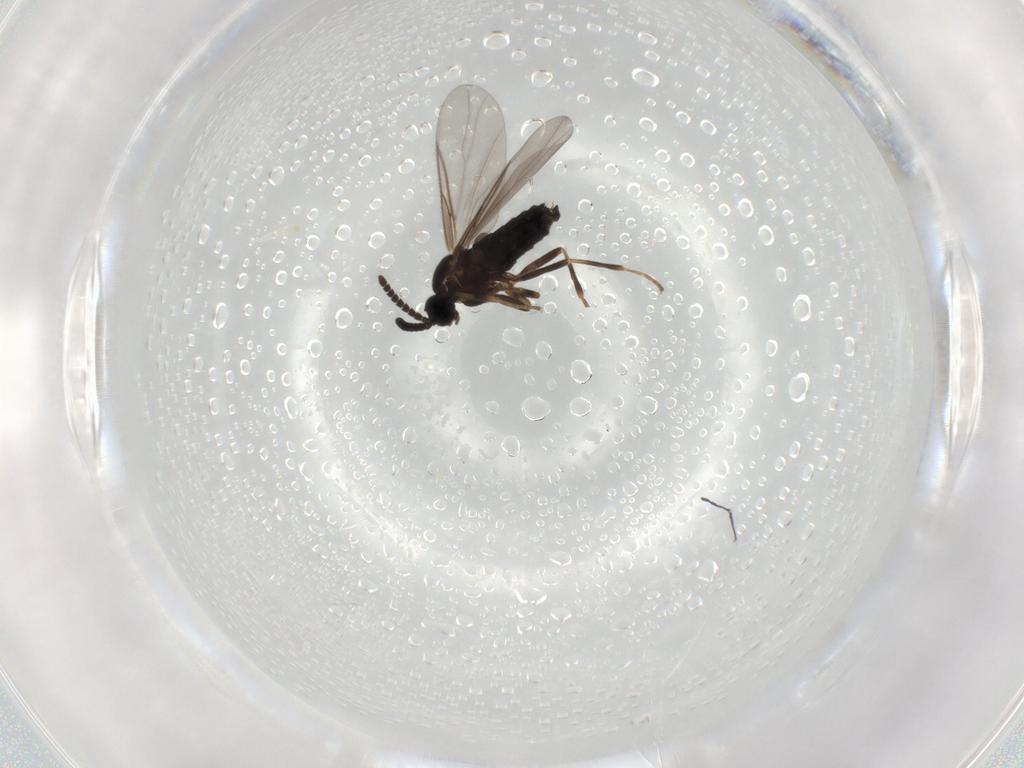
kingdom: Animalia
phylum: Arthropoda
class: Insecta
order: Diptera
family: Scatopsidae
